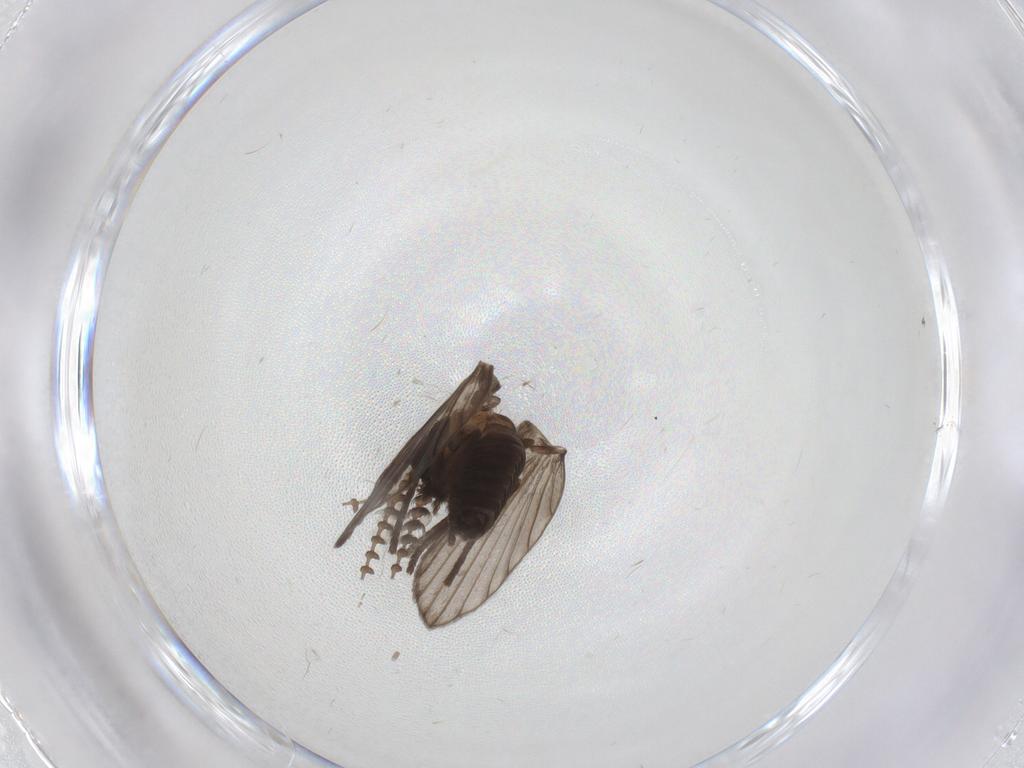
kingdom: Animalia
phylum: Arthropoda
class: Insecta
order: Diptera
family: Psychodidae
